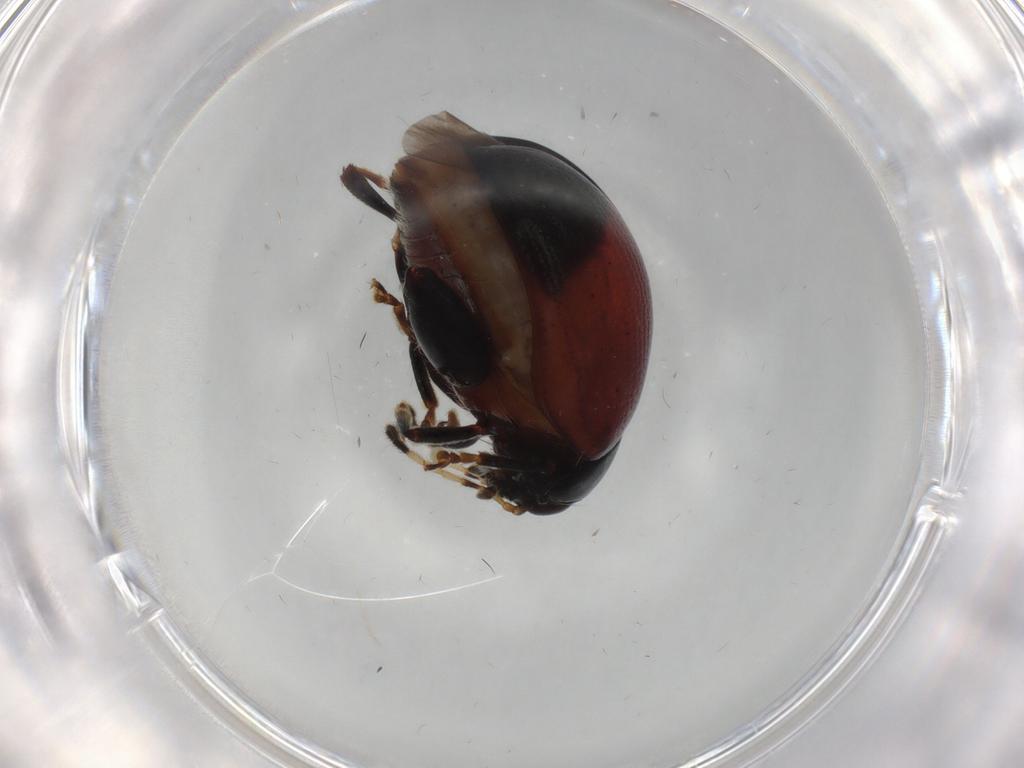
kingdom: Animalia
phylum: Arthropoda
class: Insecta
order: Coleoptera
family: Chrysomelidae
